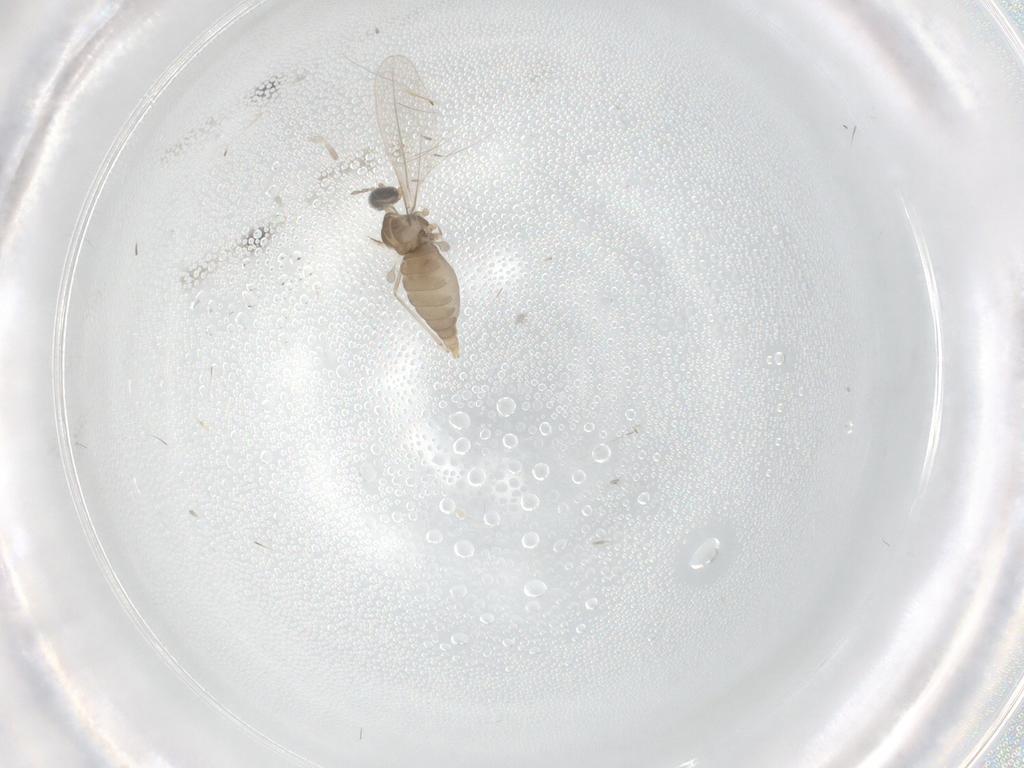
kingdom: Animalia
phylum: Arthropoda
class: Insecta
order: Diptera
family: Cecidomyiidae
